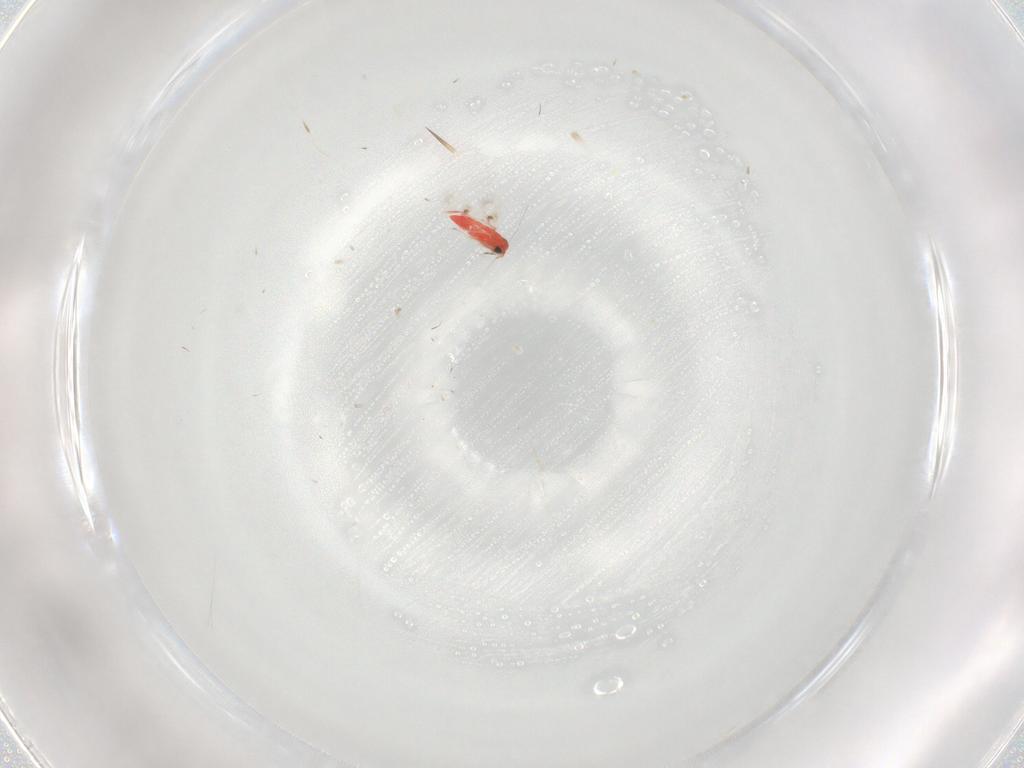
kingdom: Animalia
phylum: Arthropoda
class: Insecta
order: Hymenoptera
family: Trichogrammatidae
